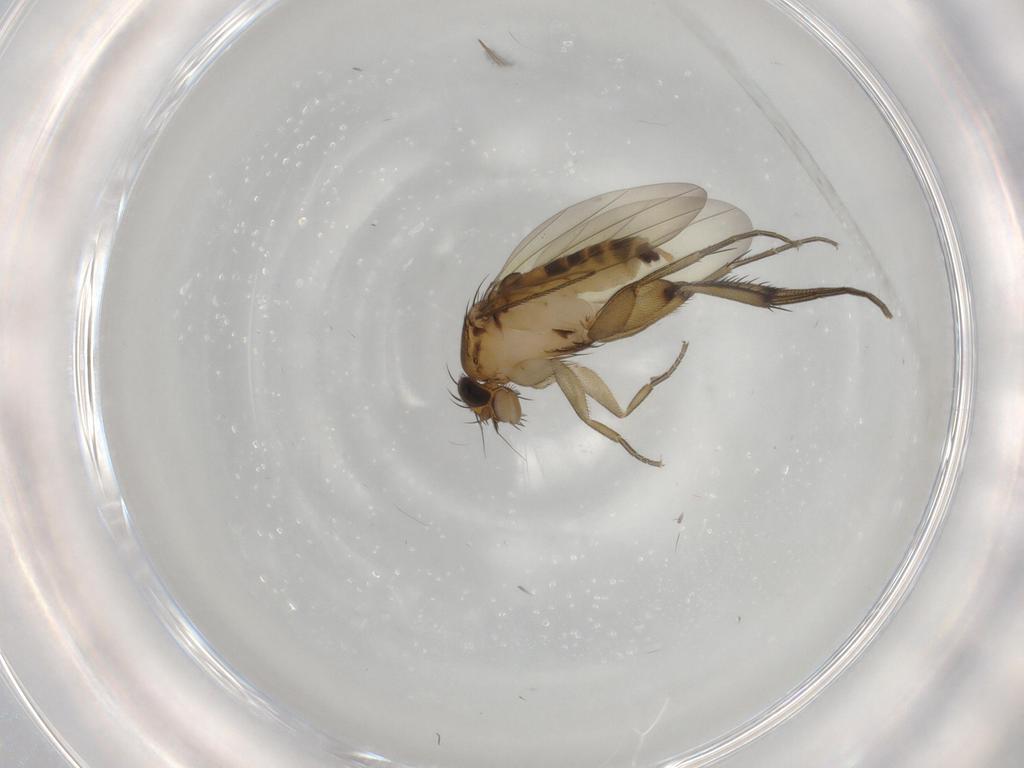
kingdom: Animalia
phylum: Arthropoda
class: Insecta
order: Diptera
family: Phoridae
